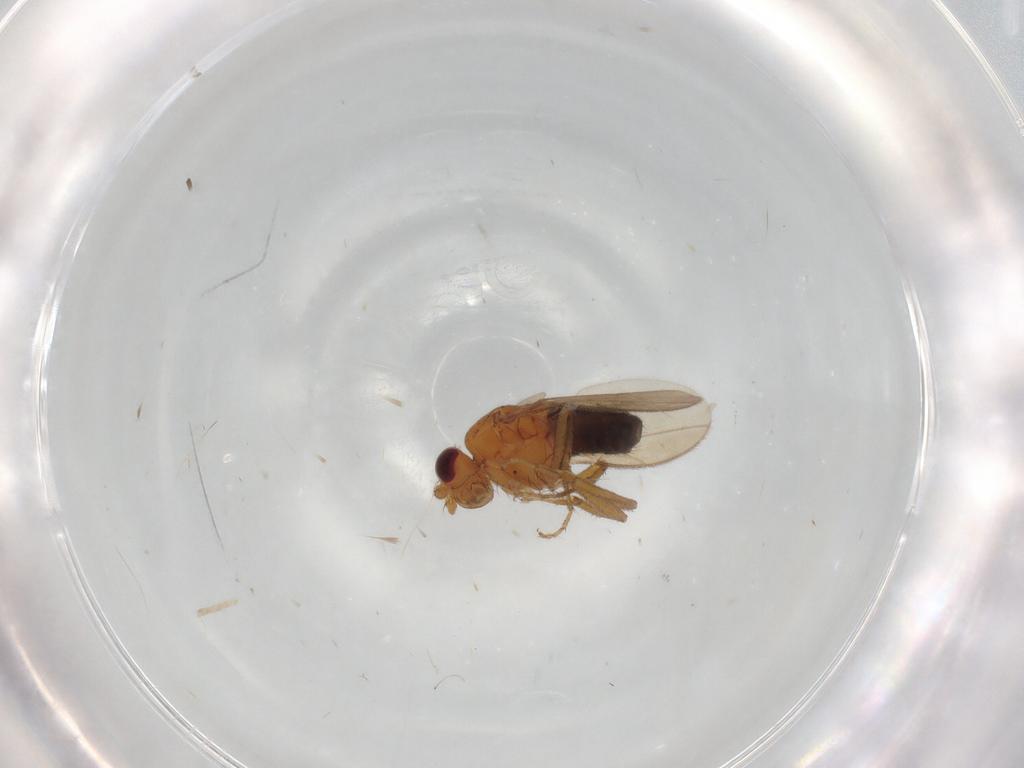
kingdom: Animalia
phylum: Arthropoda
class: Insecta
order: Diptera
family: Sphaeroceridae
